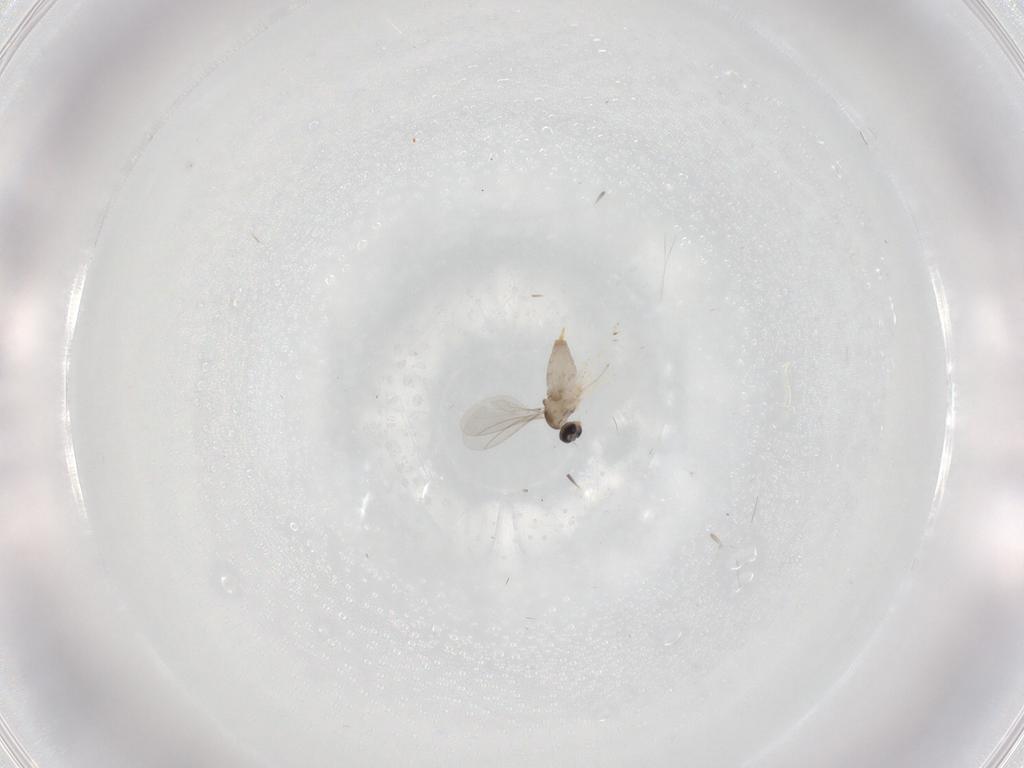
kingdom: Animalia
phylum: Arthropoda
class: Insecta
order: Diptera
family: Cecidomyiidae
